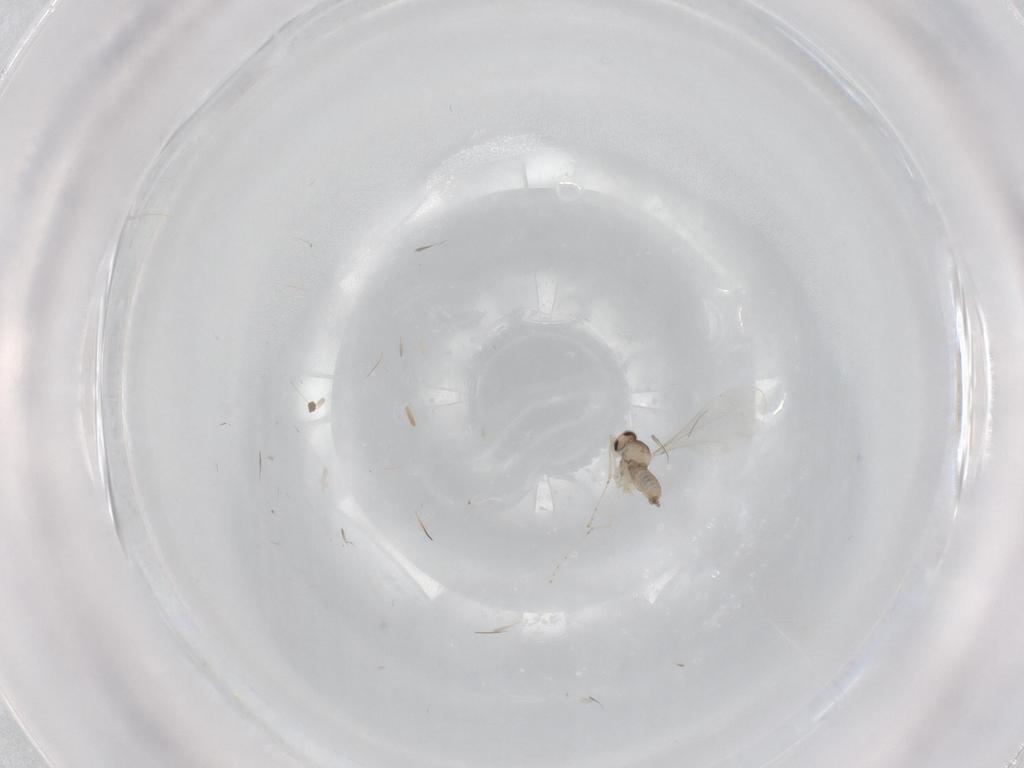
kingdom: Animalia
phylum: Arthropoda
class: Insecta
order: Diptera
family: Cecidomyiidae
